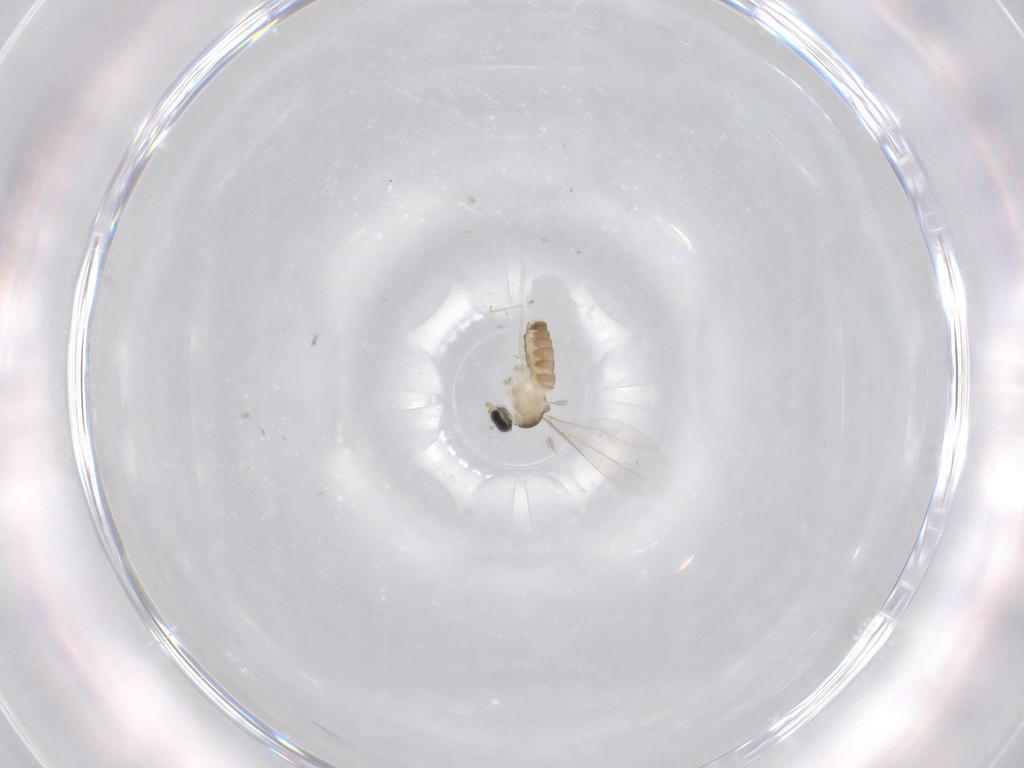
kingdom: Animalia
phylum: Arthropoda
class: Insecta
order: Diptera
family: Cecidomyiidae
